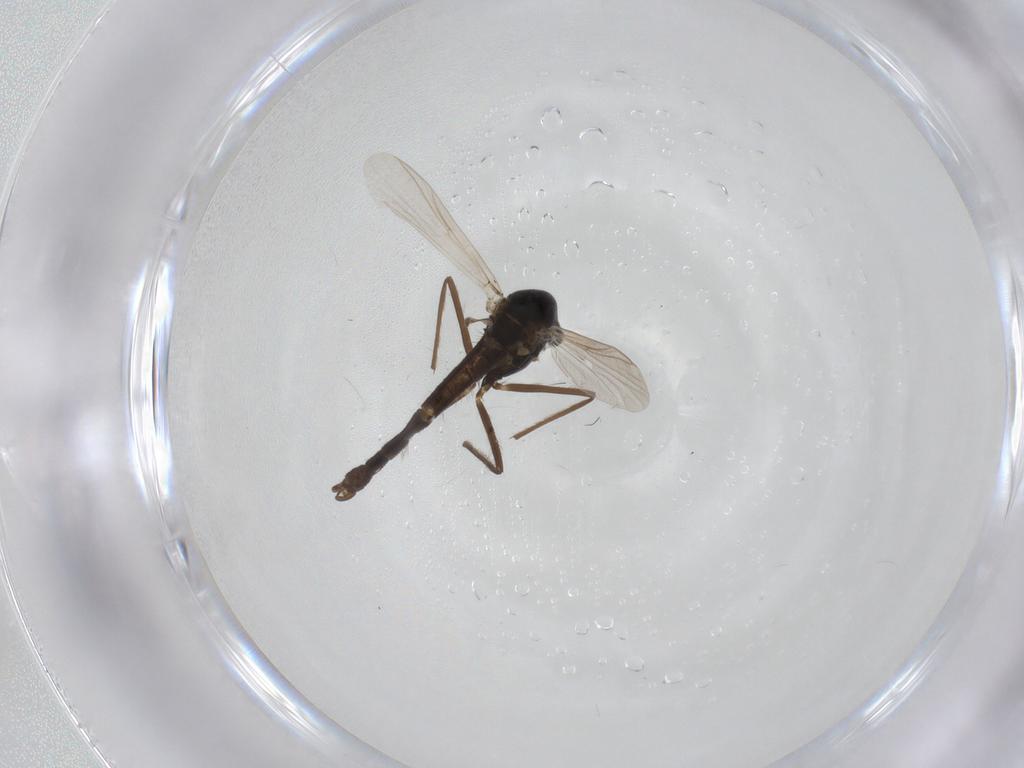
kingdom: Animalia
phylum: Arthropoda
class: Insecta
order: Diptera
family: Chironomidae
